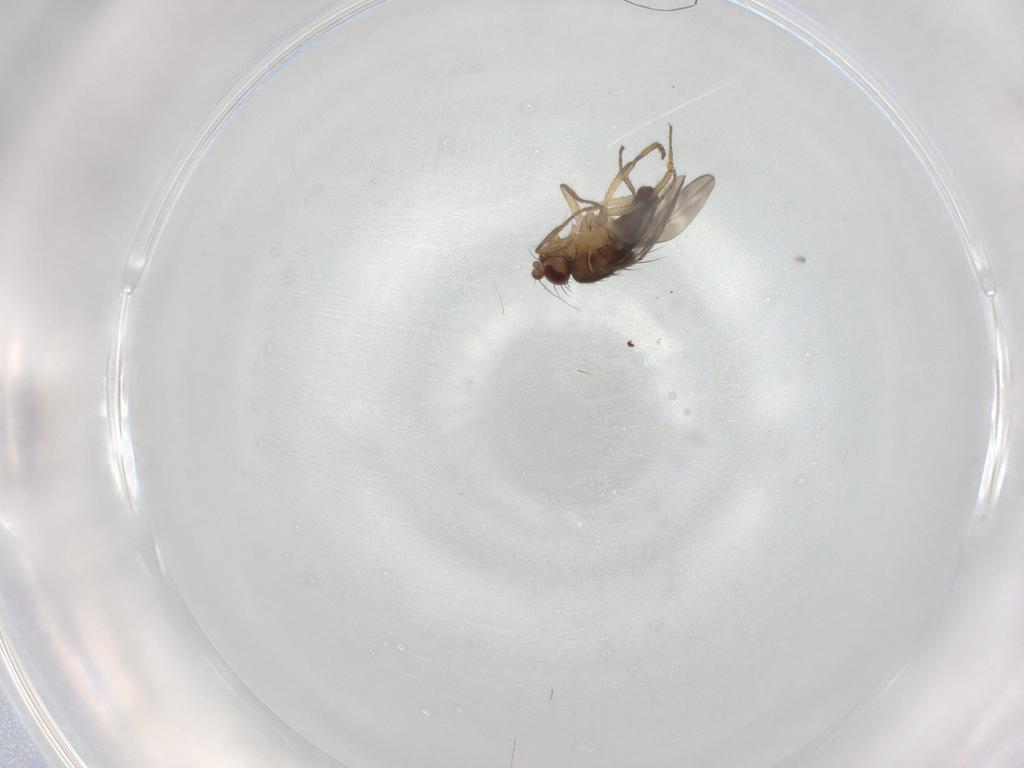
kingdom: Animalia
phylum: Arthropoda
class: Insecta
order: Diptera
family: Sphaeroceridae
